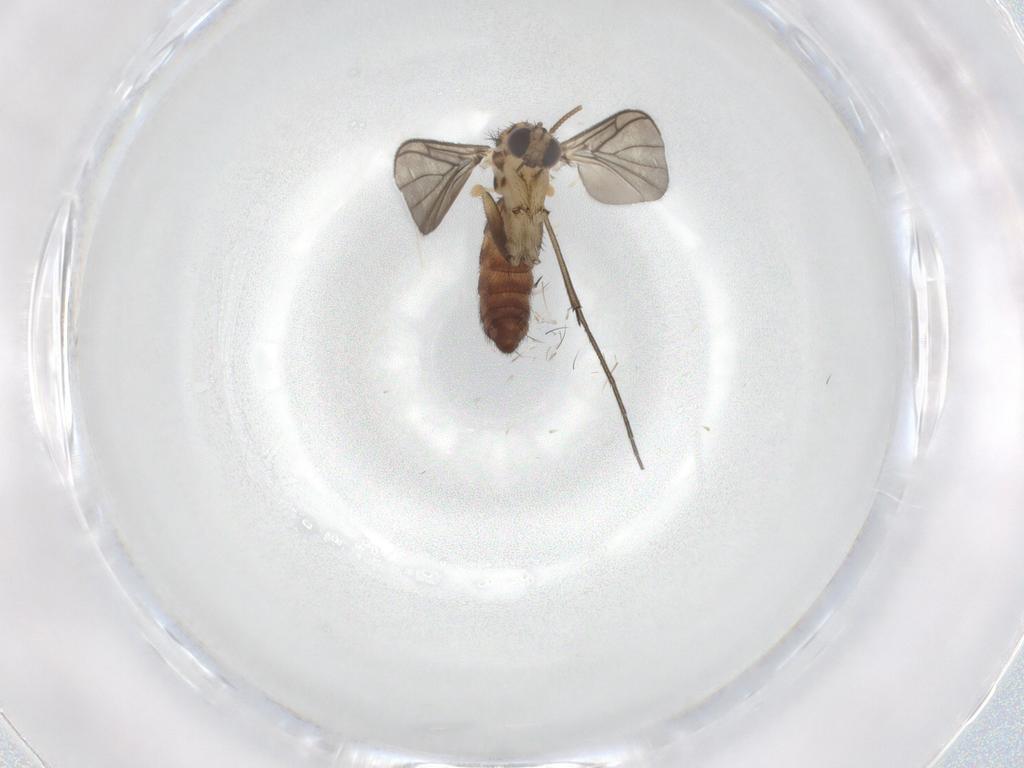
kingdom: Animalia
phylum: Arthropoda
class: Insecta
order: Diptera
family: Keroplatidae
